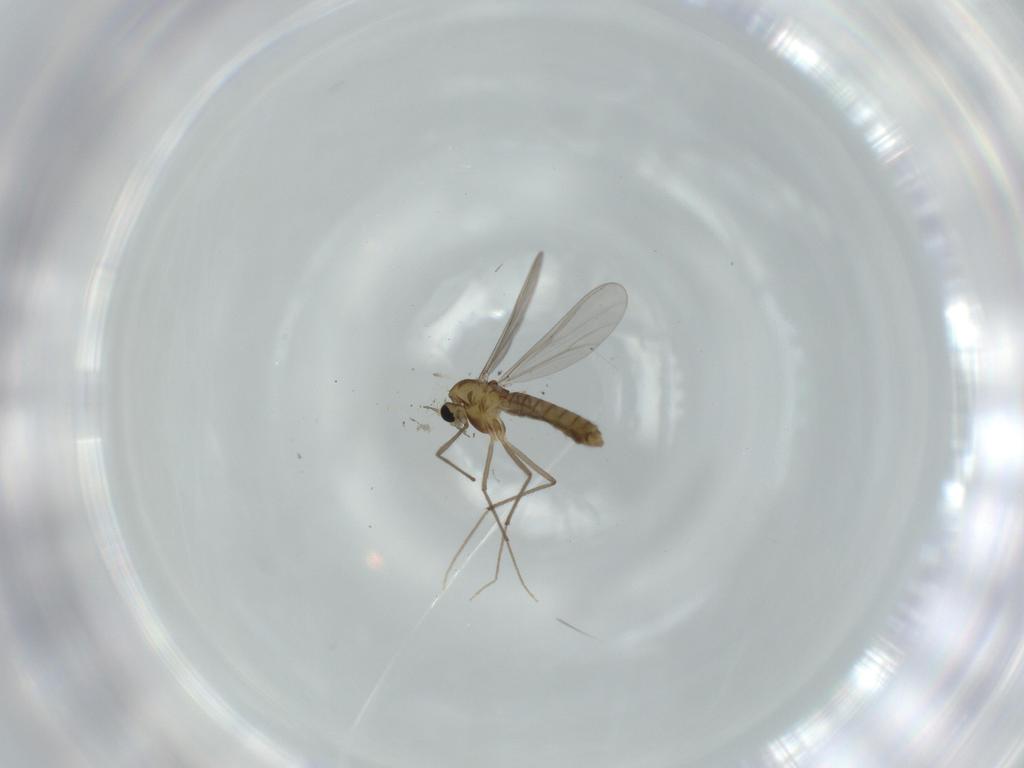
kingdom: Animalia
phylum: Arthropoda
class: Insecta
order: Diptera
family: Chironomidae
